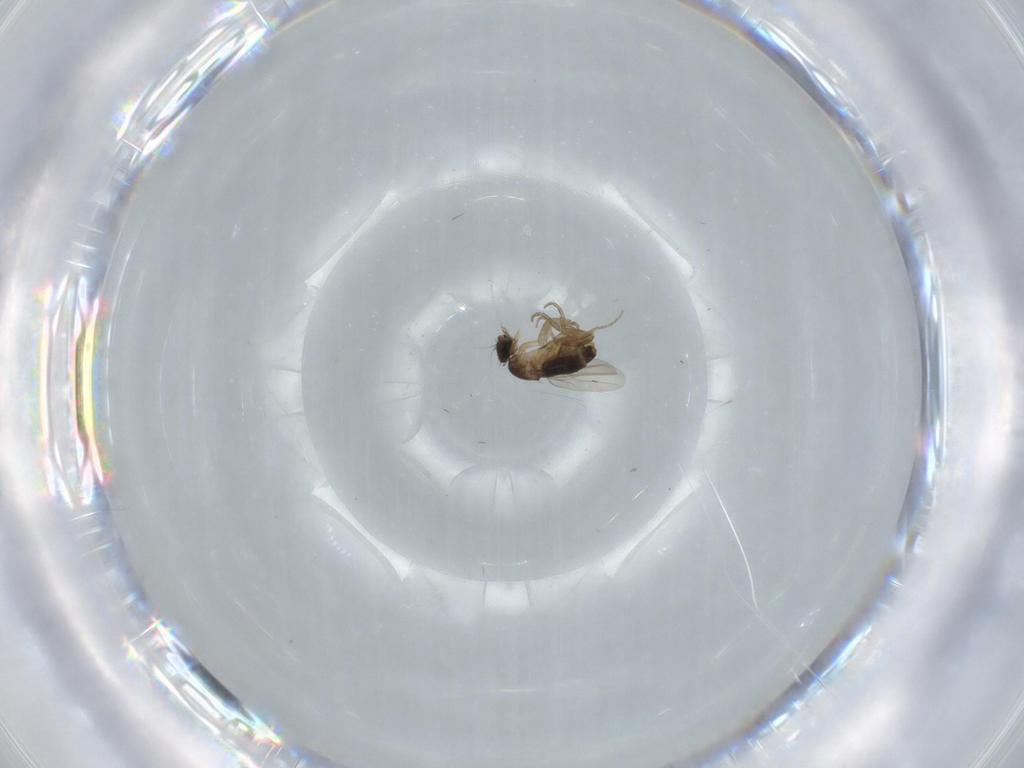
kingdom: Animalia
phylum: Arthropoda
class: Insecta
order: Diptera
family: Phoridae
